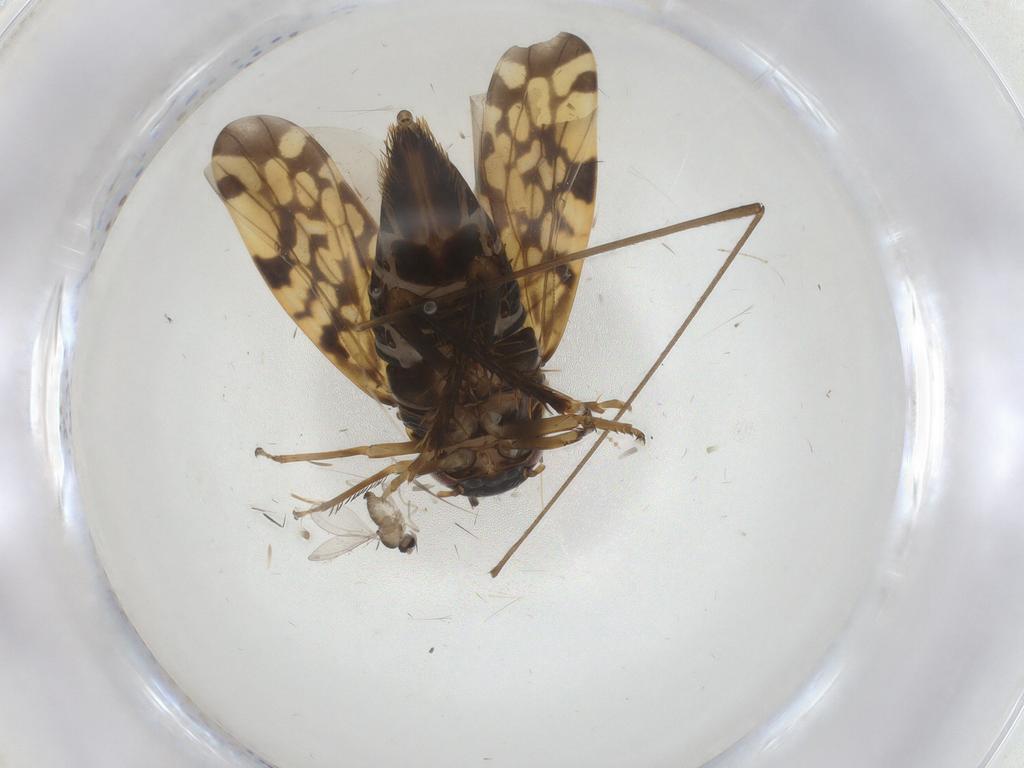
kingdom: Animalia
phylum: Arthropoda
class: Insecta
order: Hemiptera
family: Cicadellidae
